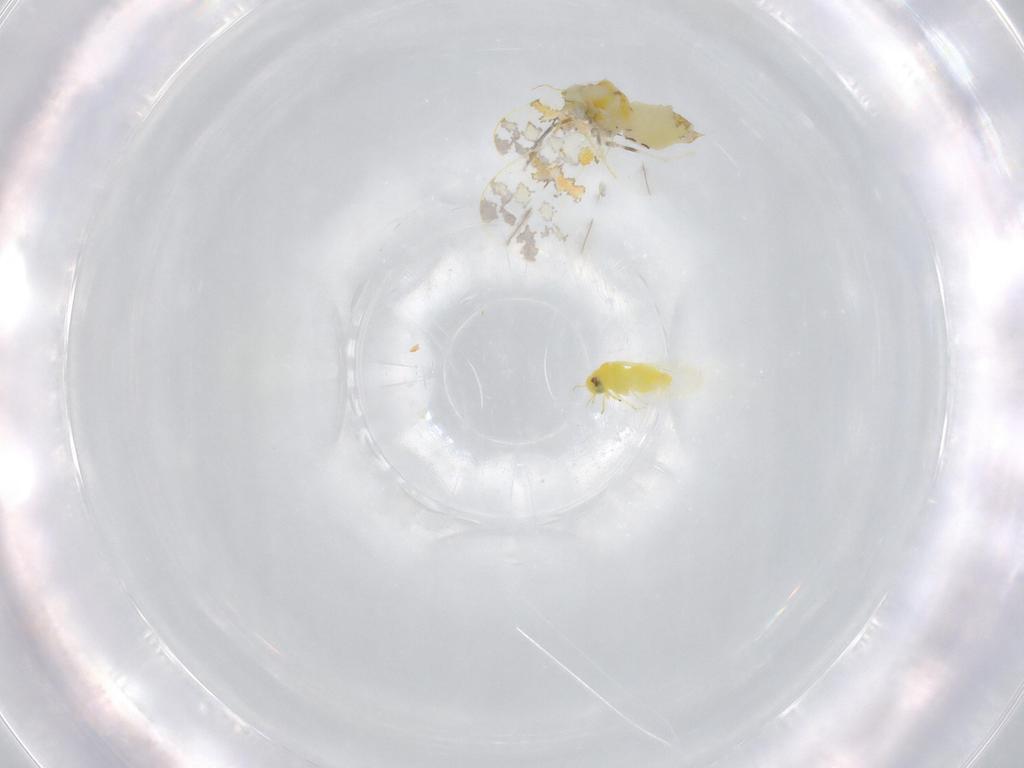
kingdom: Animalia
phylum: Arthropoda
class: Insecta
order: Hemiptera
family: Aleyrodidae
